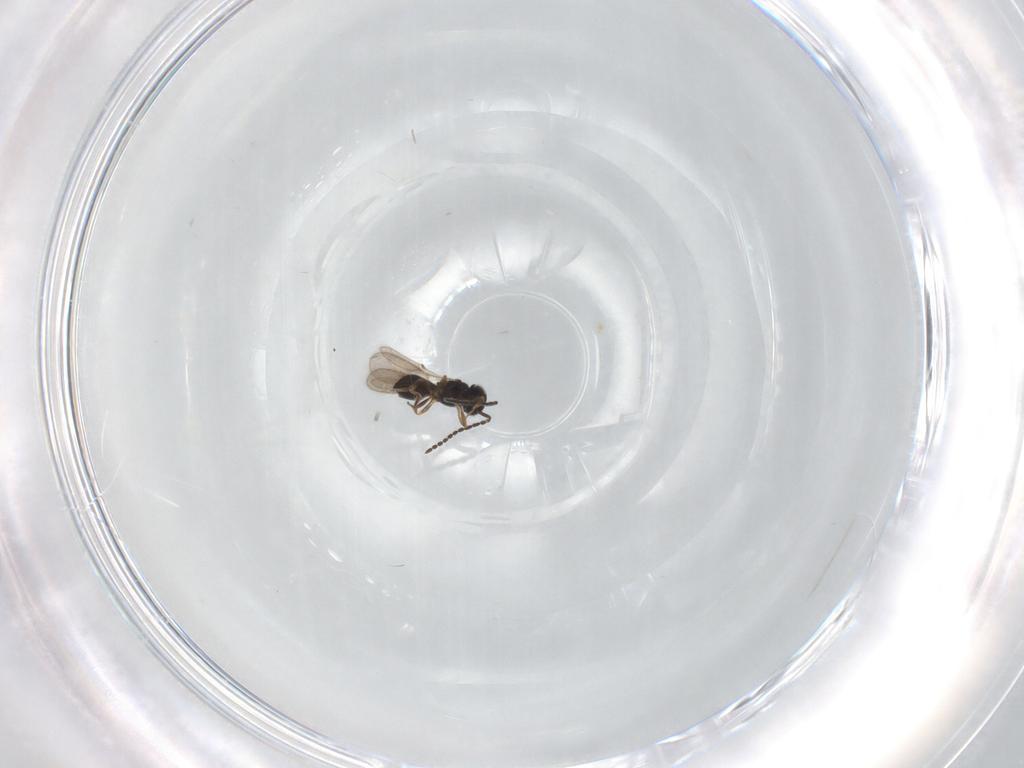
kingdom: Animalia
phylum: Arthropoda
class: Insecta
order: Hymenoptera
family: Scelionidae
